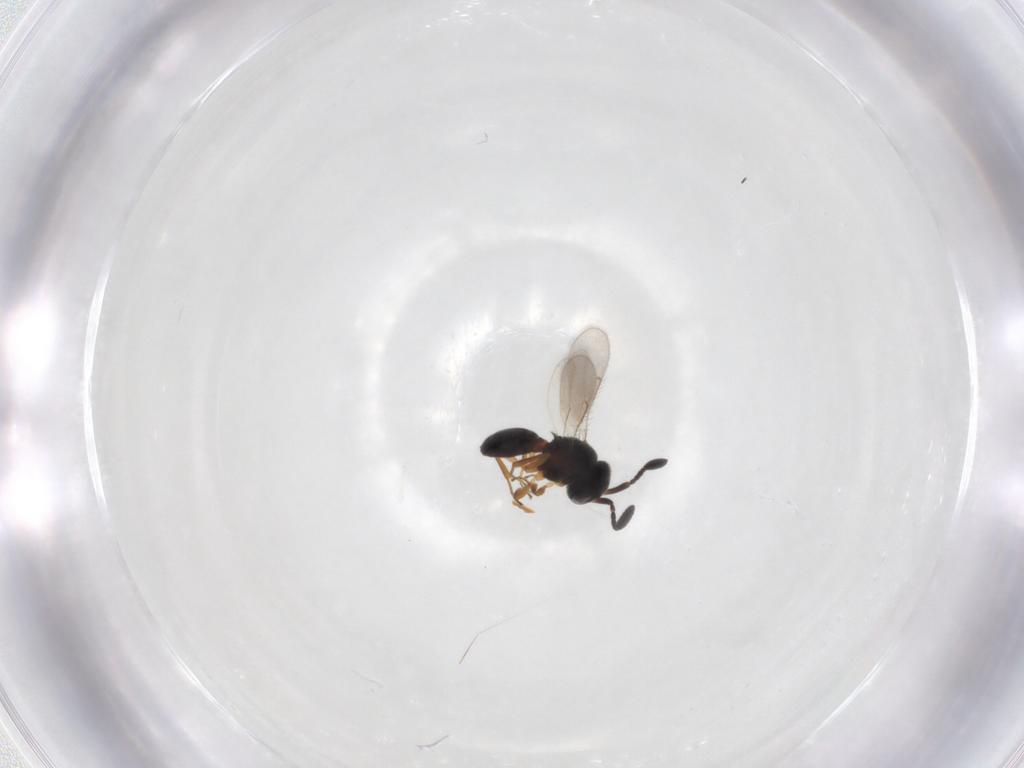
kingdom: Animalia
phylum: Arthropoda
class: Insecta
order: Hymenoptera
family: Scelionidae
